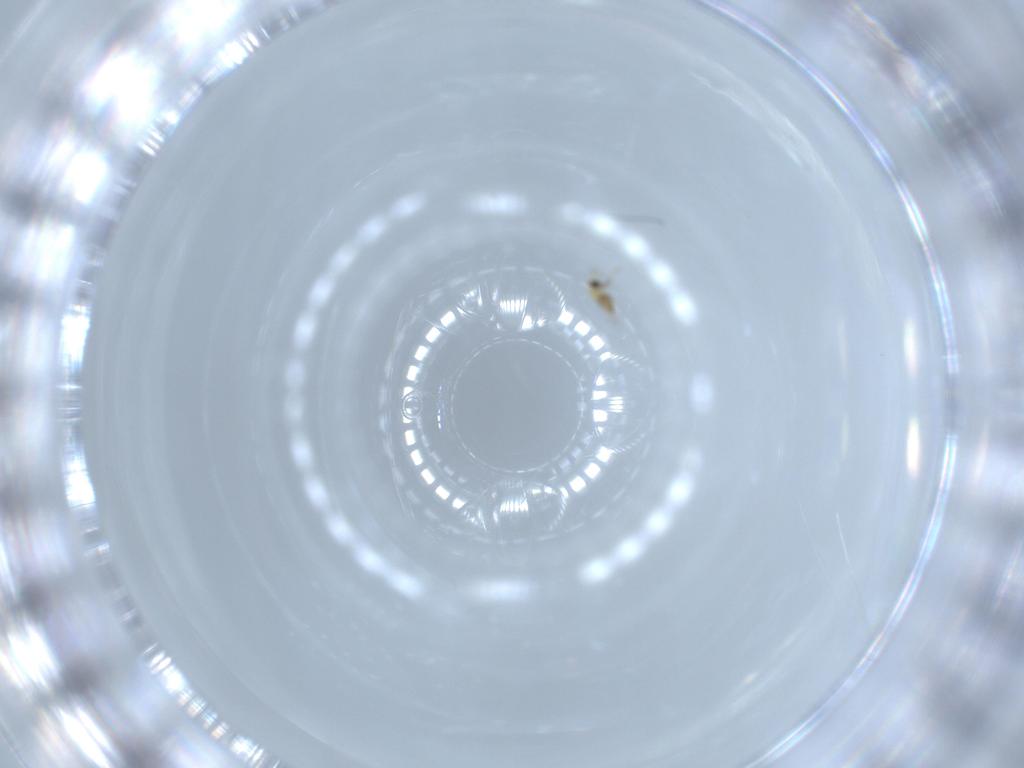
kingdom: Animalia
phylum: Arthropoda
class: Insecta
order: Hymenoptera
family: Trichogrammatidae
